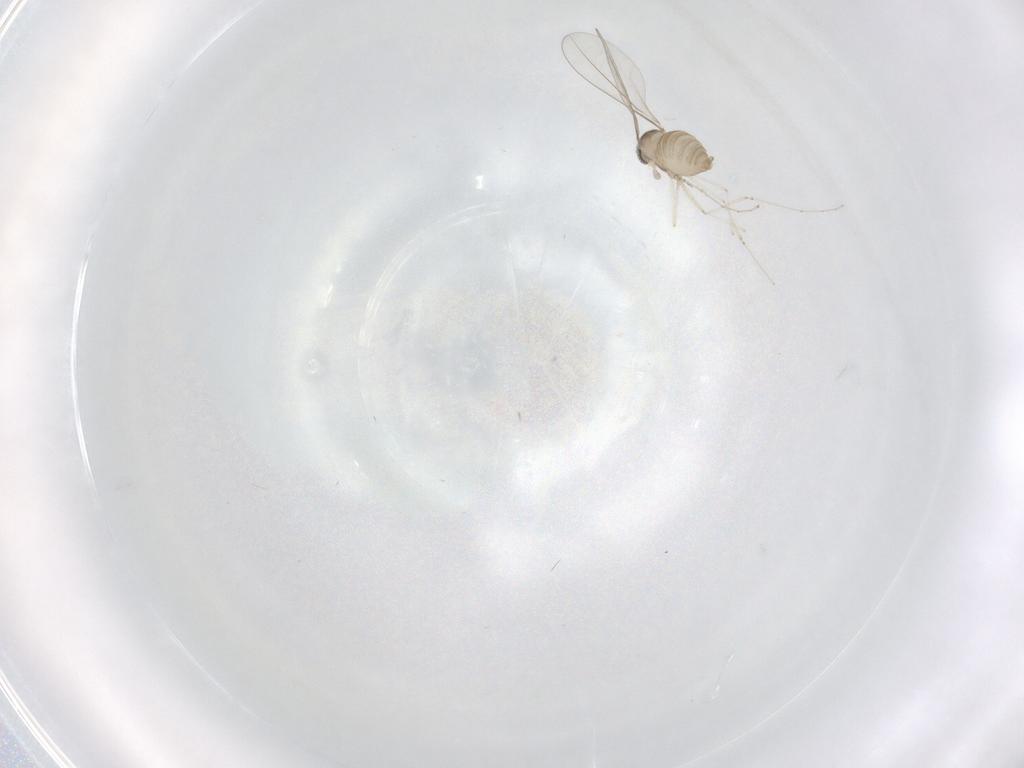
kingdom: Animalia
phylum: Arthropoda
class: Insecta
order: Diptera
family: Cecidomyiidae
